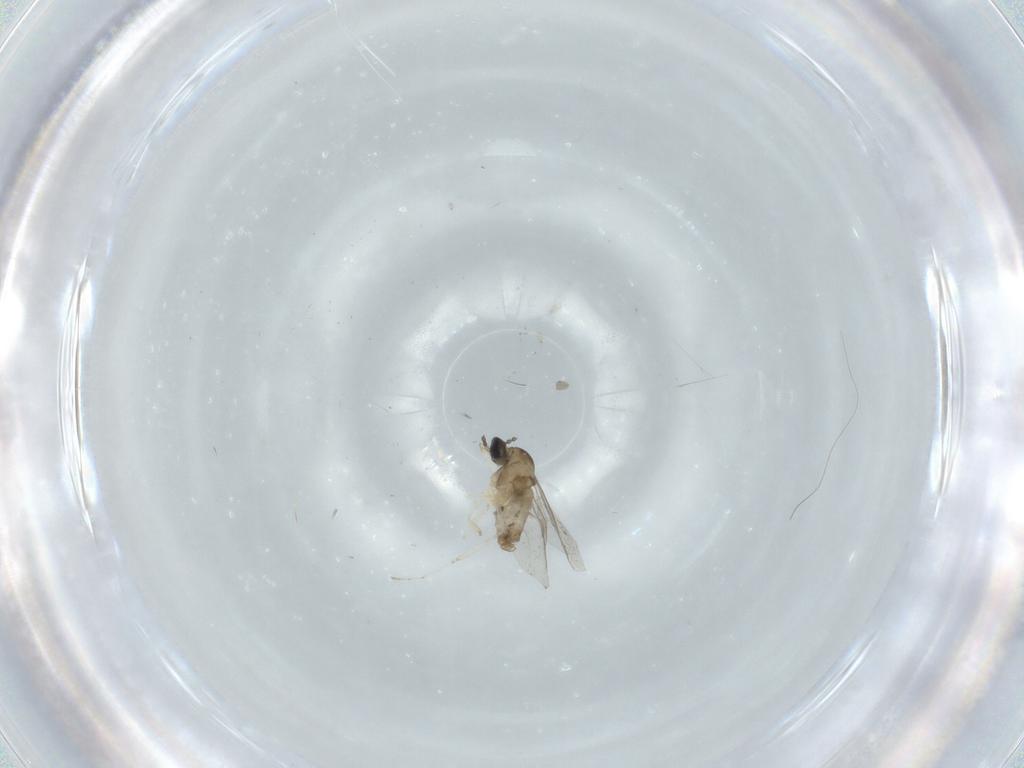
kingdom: Animalia
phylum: Arthropoda
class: Insecta
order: Diptera
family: Cecidomyiidae
